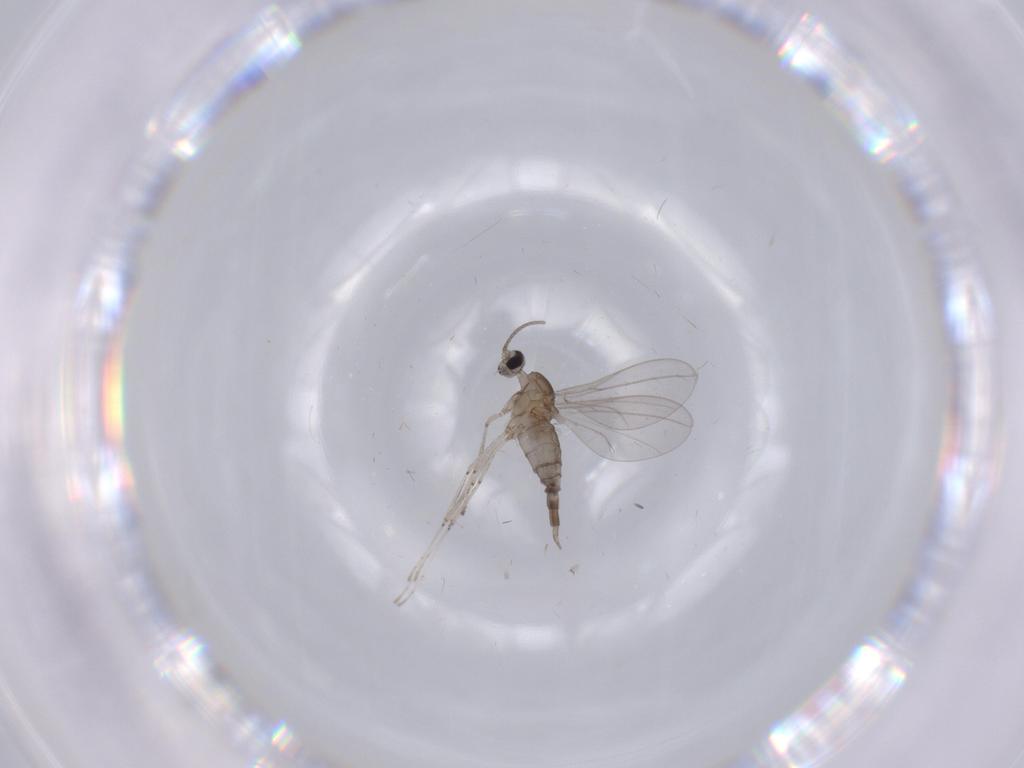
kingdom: Animalia
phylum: Arthropoda
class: Insecta
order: Diptera
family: Cecidomyiidae
